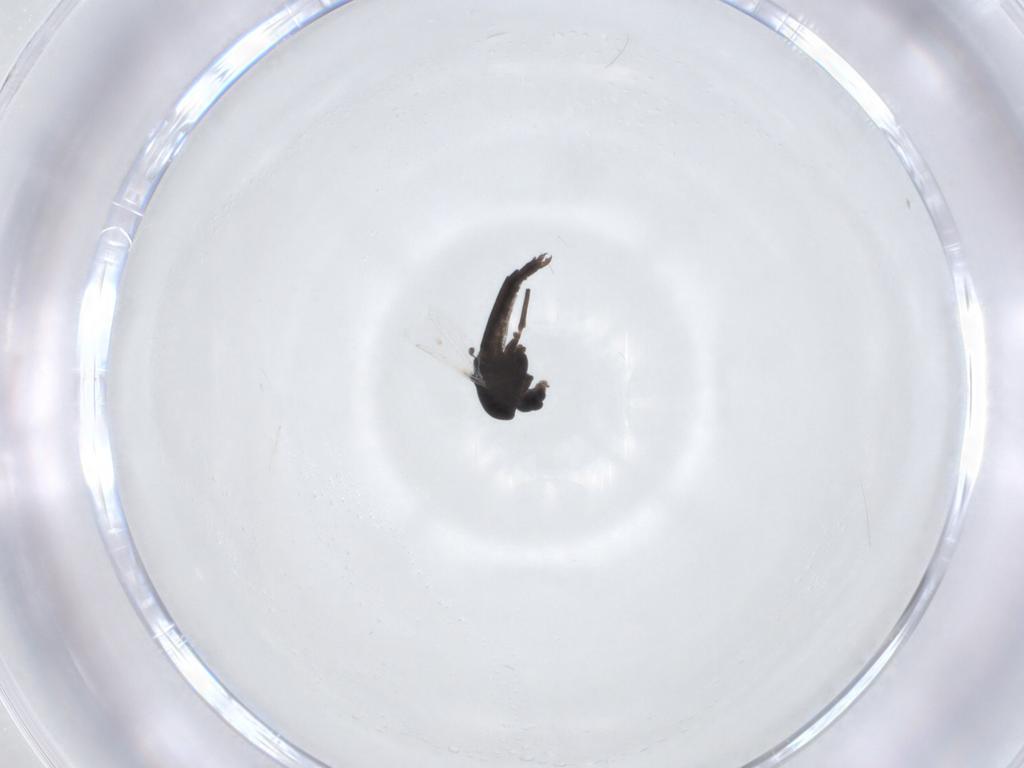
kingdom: Animalia
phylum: Arthropoda
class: Insecta
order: Diptera
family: Chironomidae
